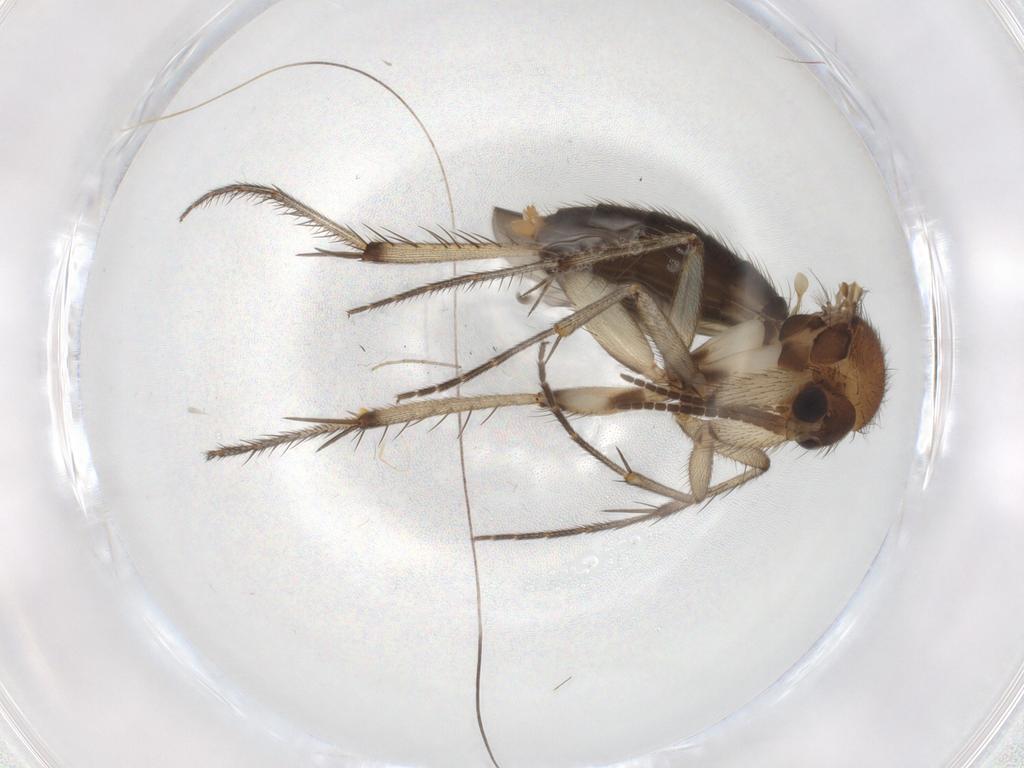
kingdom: Animalia
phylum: Arthropoda
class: Insecta
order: Diptera
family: Mycetophilidae
